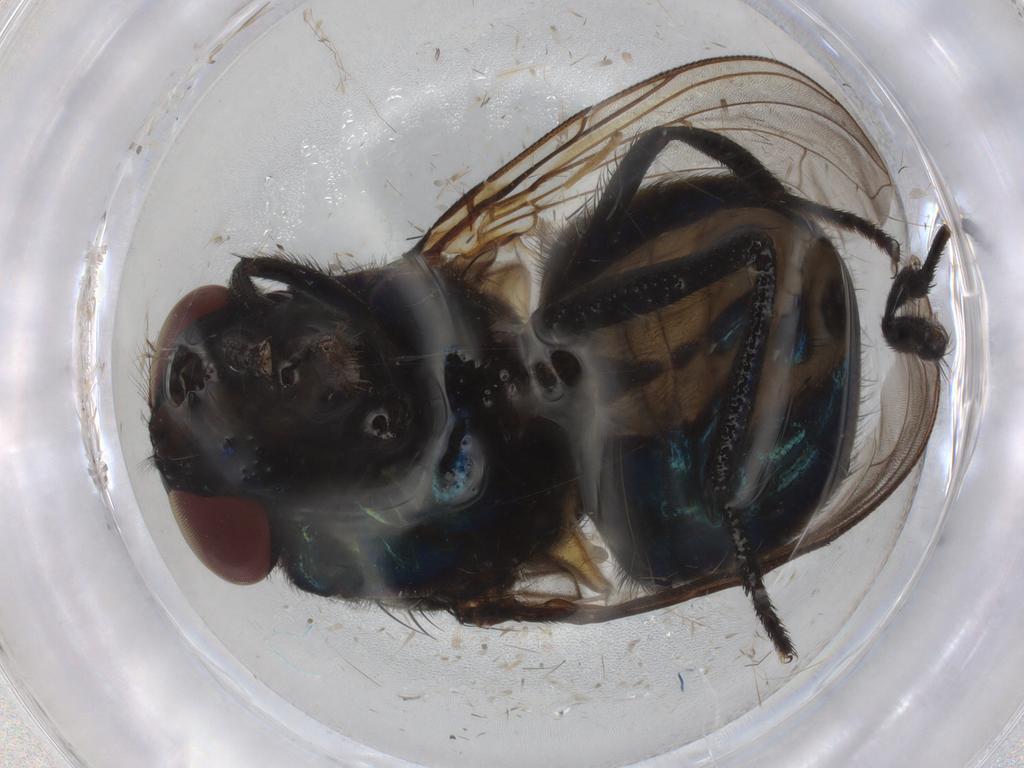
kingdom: Animalia
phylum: Arthropoda
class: Insecta
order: Diptera
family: Muscidae
